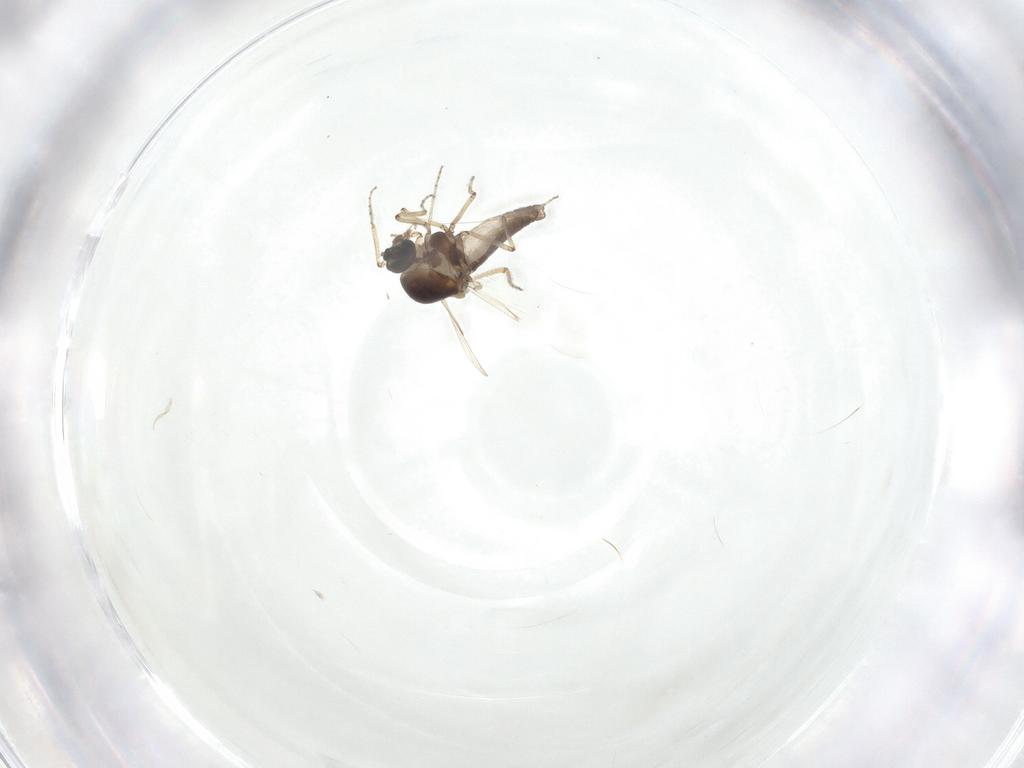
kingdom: Animalia
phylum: Arthropoda
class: Insecta
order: Diptera
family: Ceratopogonidae
